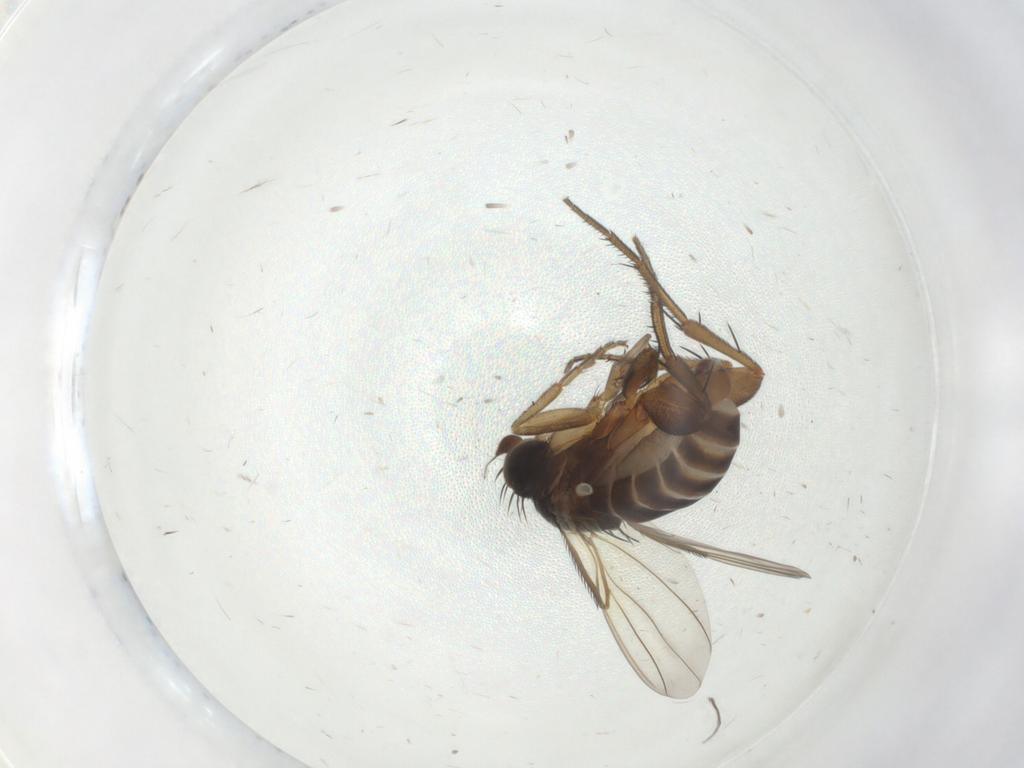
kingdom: Animalia
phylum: Arthropoda
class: Insecta
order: Diptera
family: Psychodidae
